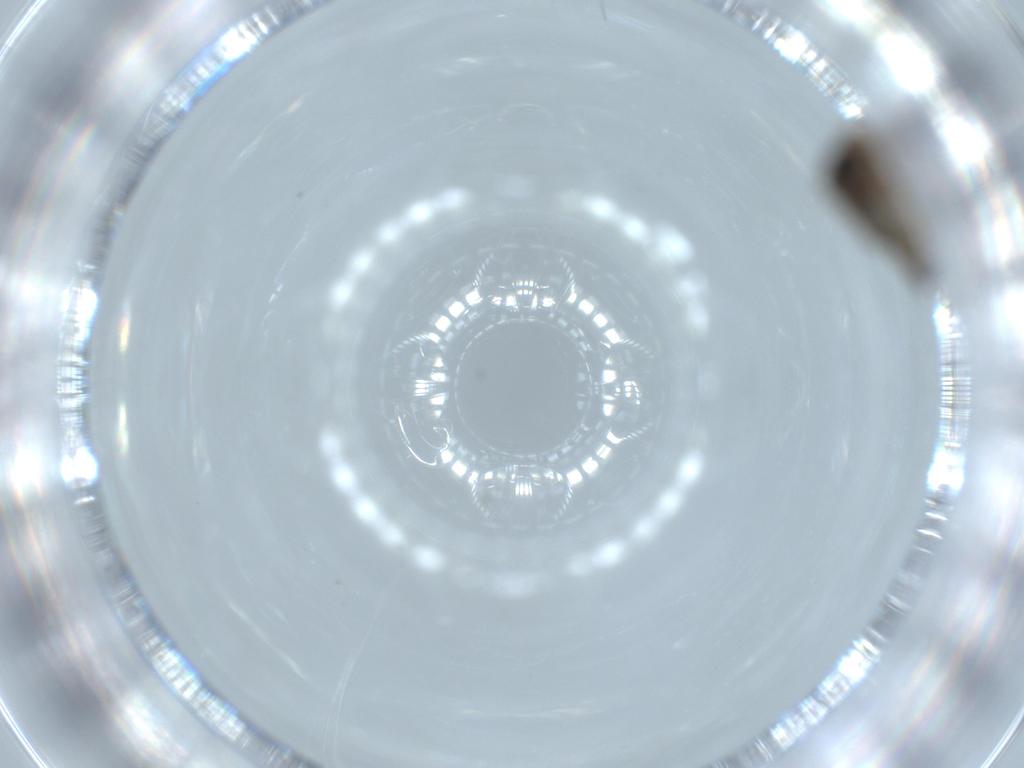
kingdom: Animalia
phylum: Arthropoda
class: Insecta
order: Diptera
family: Psychodidae
